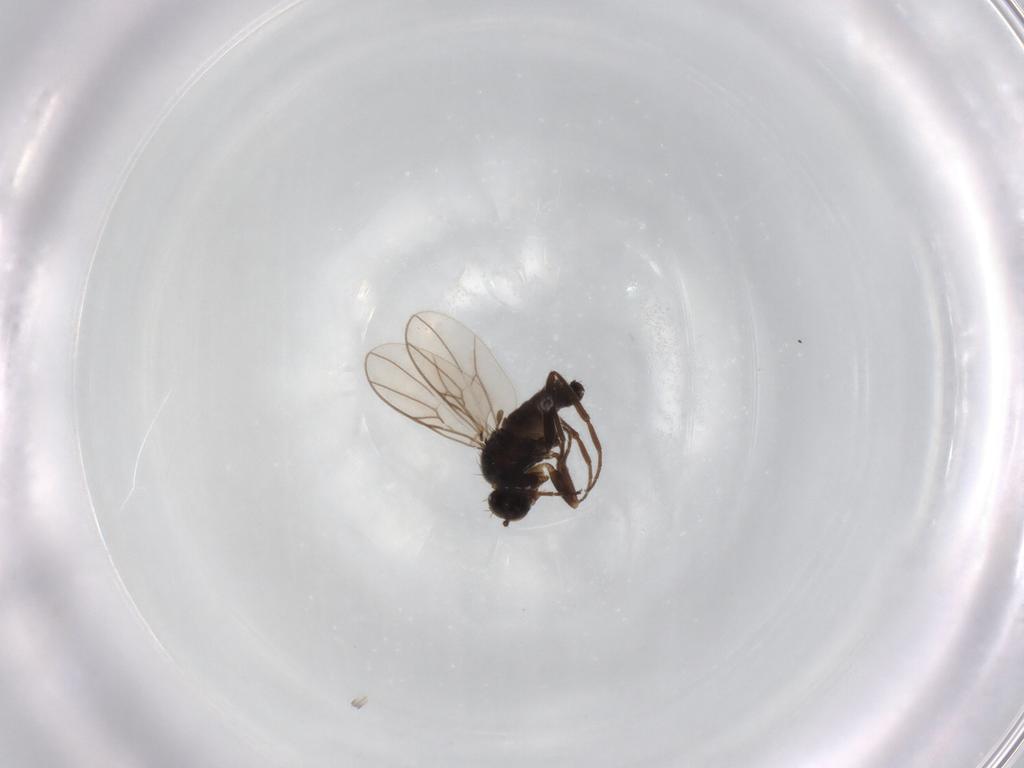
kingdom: Animalia
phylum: Arthropoda
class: Insecta
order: Diptera
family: Hybotidae
